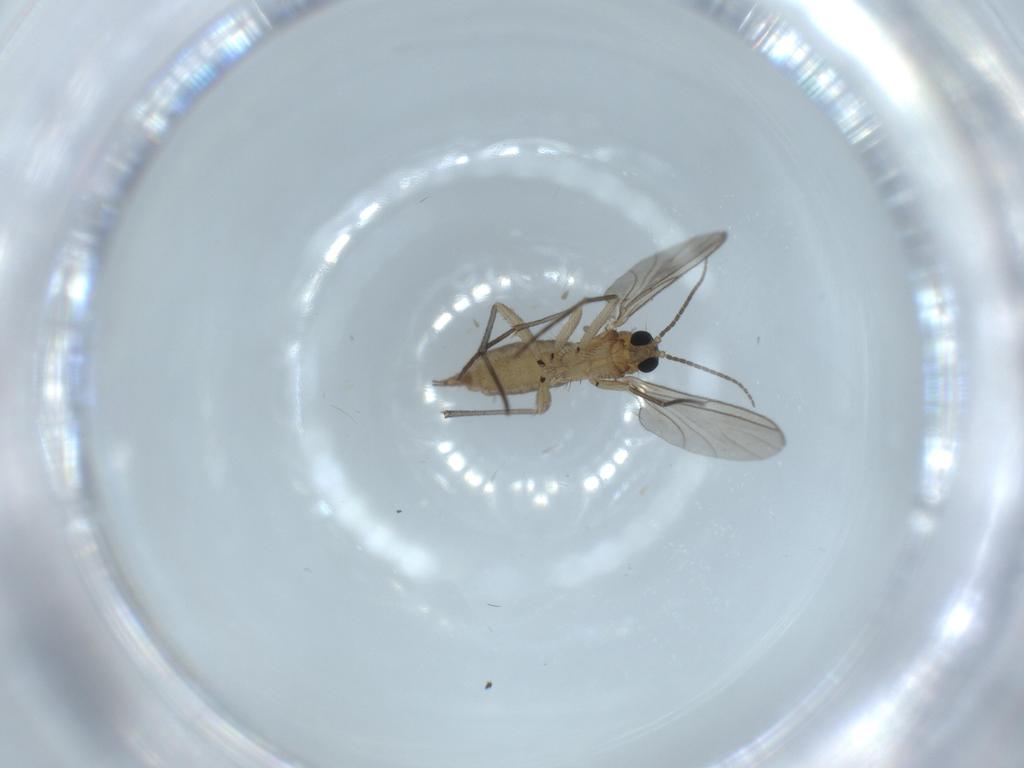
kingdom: Animalia
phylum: Arthropoda
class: Insecta
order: Diptera
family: Sciaridae
